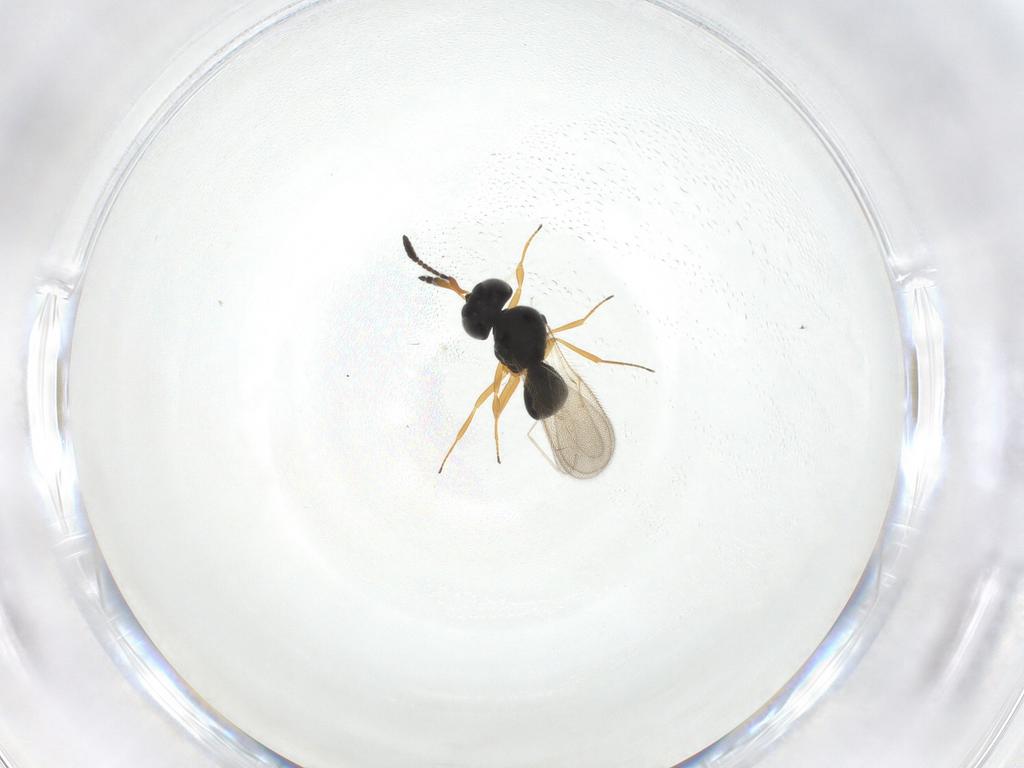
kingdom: Animalia
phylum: Arthropoda
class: Insecta
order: Hymenoptera
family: Scelionidae
